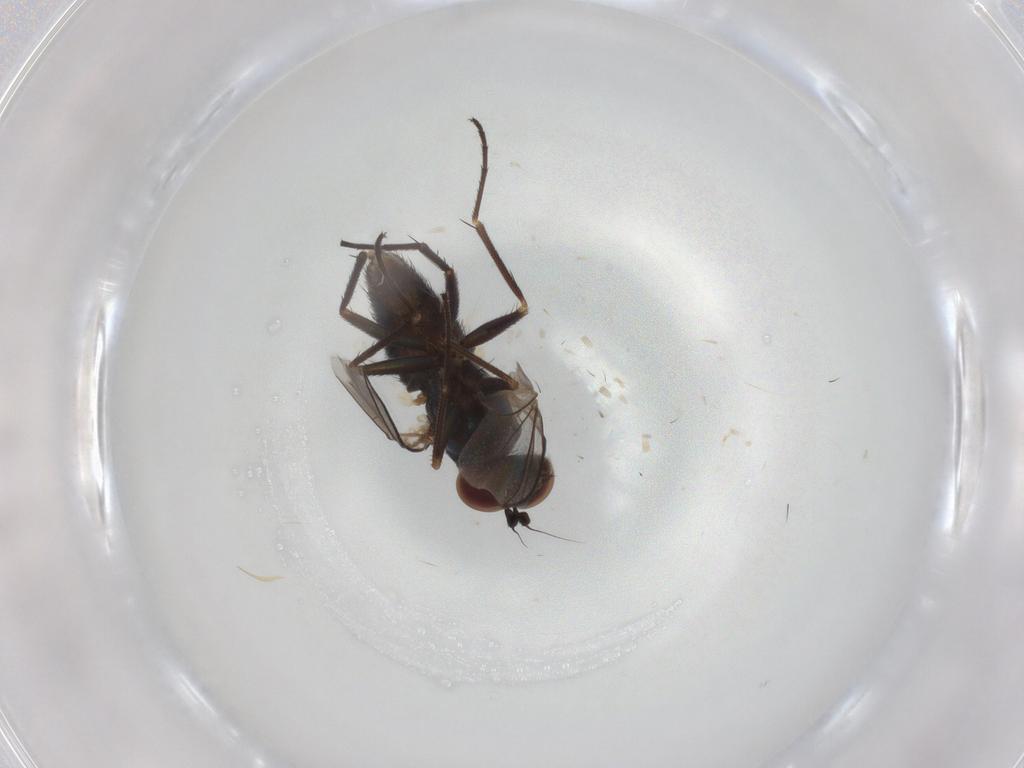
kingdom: Animalia
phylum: Arthropoda
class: Insecta
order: Diptera
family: Dolichopodidae
